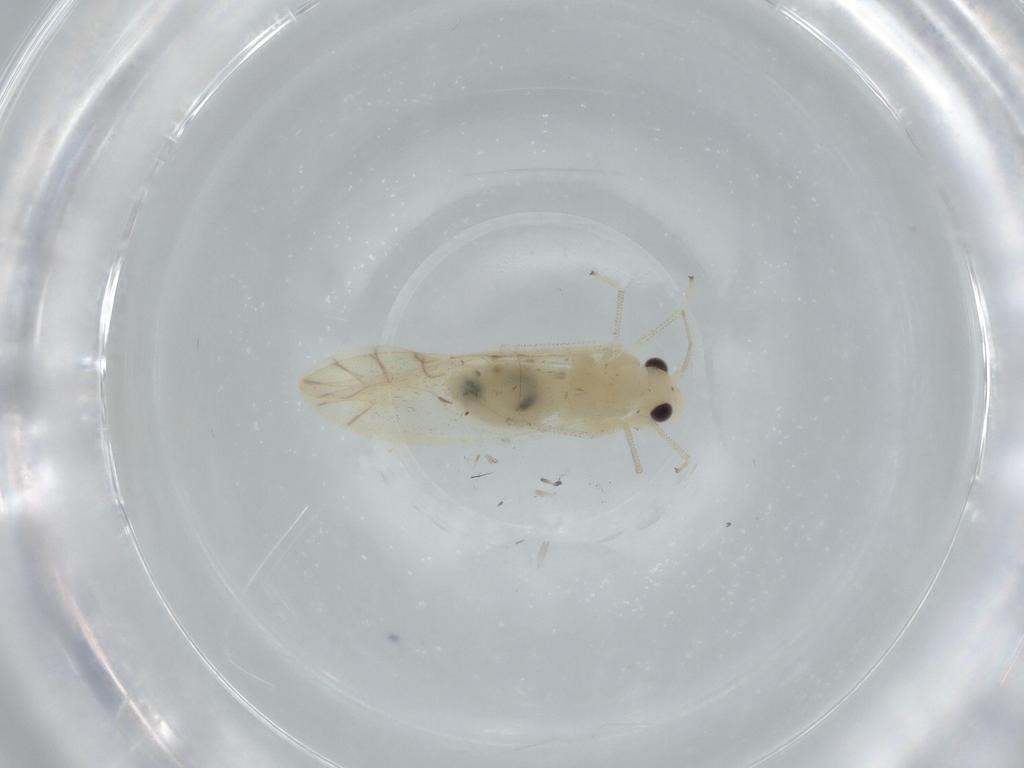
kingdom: Animalia
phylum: Arthropoda
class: Insecta
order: Psocodea
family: Caeciliusidae
